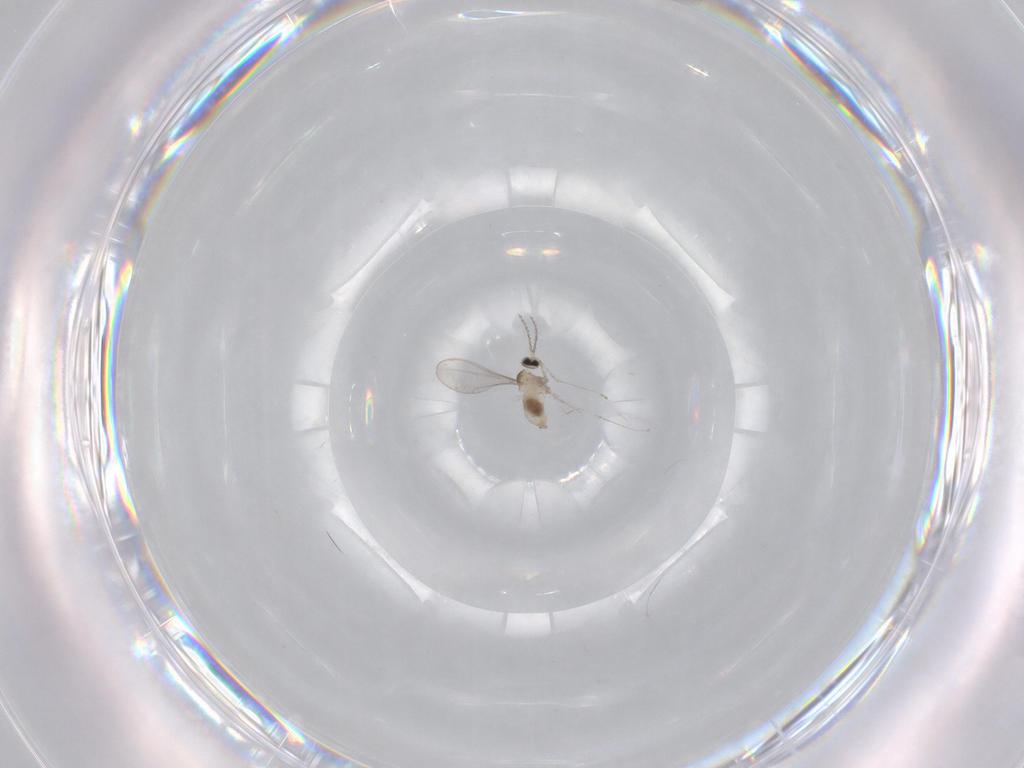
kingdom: Animalia
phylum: Arthropoda
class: Insecta
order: Diptera
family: Cecidomyiidae
